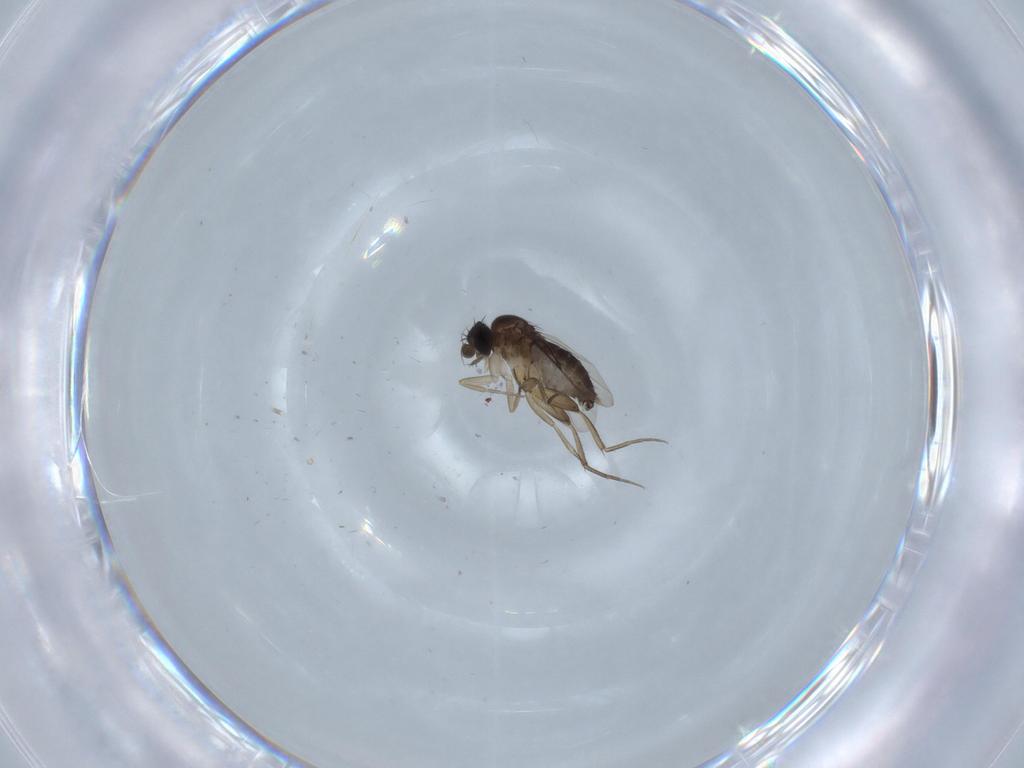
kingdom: Animalia
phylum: Arthropoda
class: Insecta
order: Diptera
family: Phoridae
